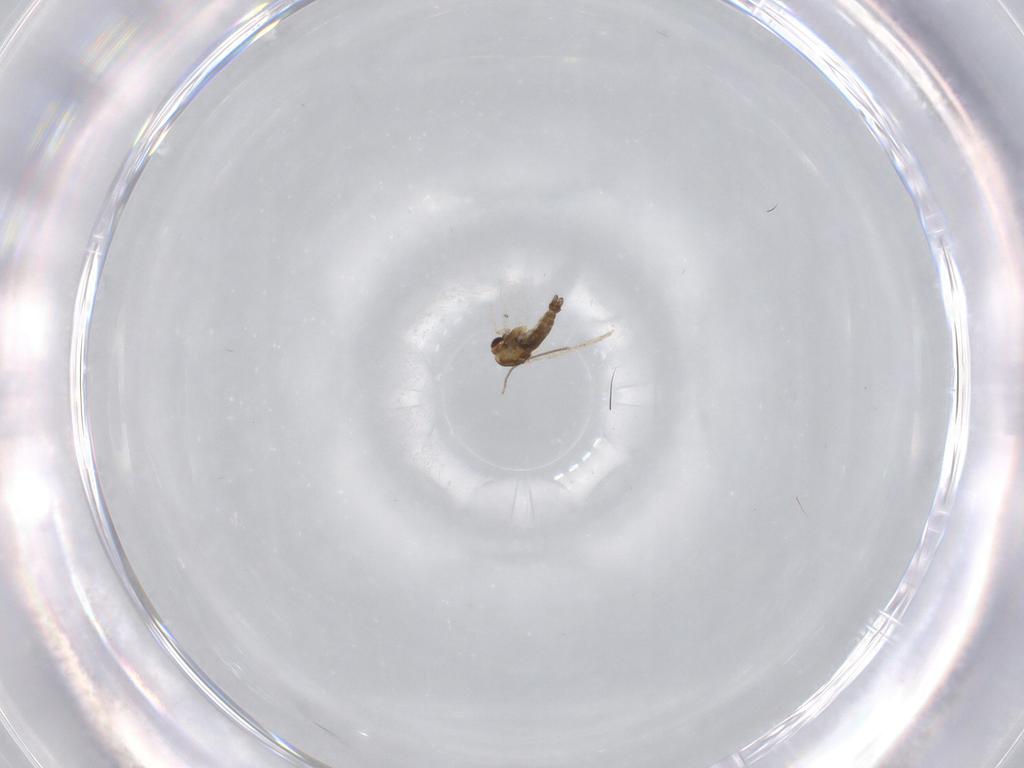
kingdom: Animalia
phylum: Arthropoda
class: Insecta
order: Diptera
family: Chironomidae
